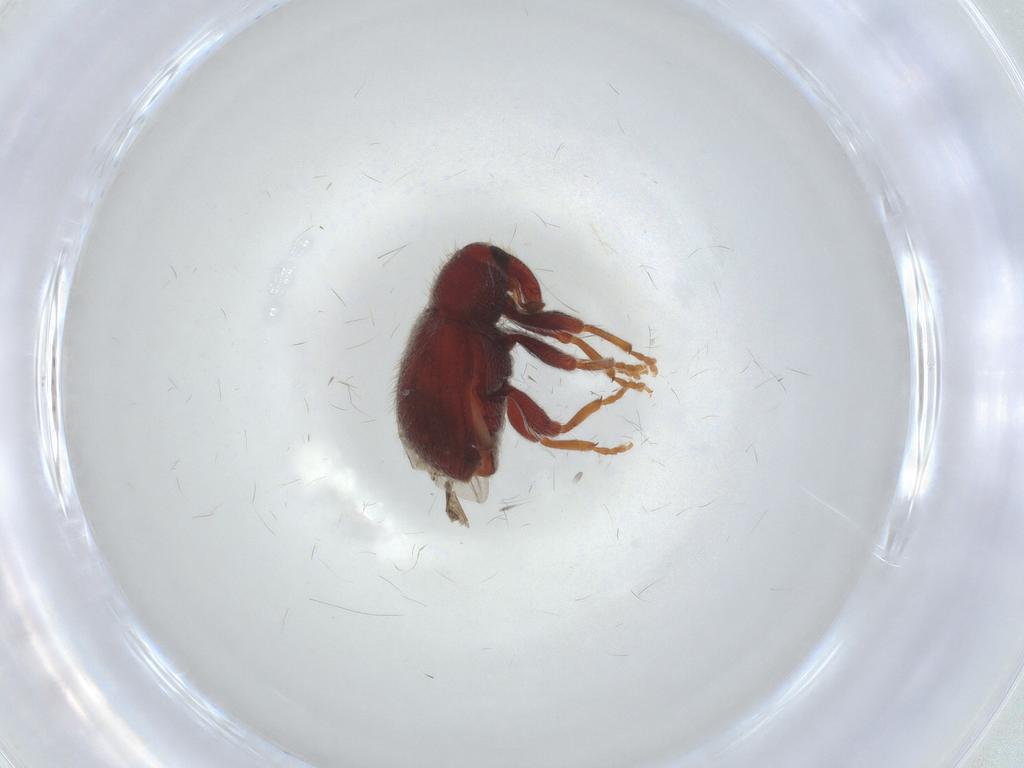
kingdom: Animalia
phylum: Arthropoda
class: Insecta
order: Coleoptera
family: Curculionidae
